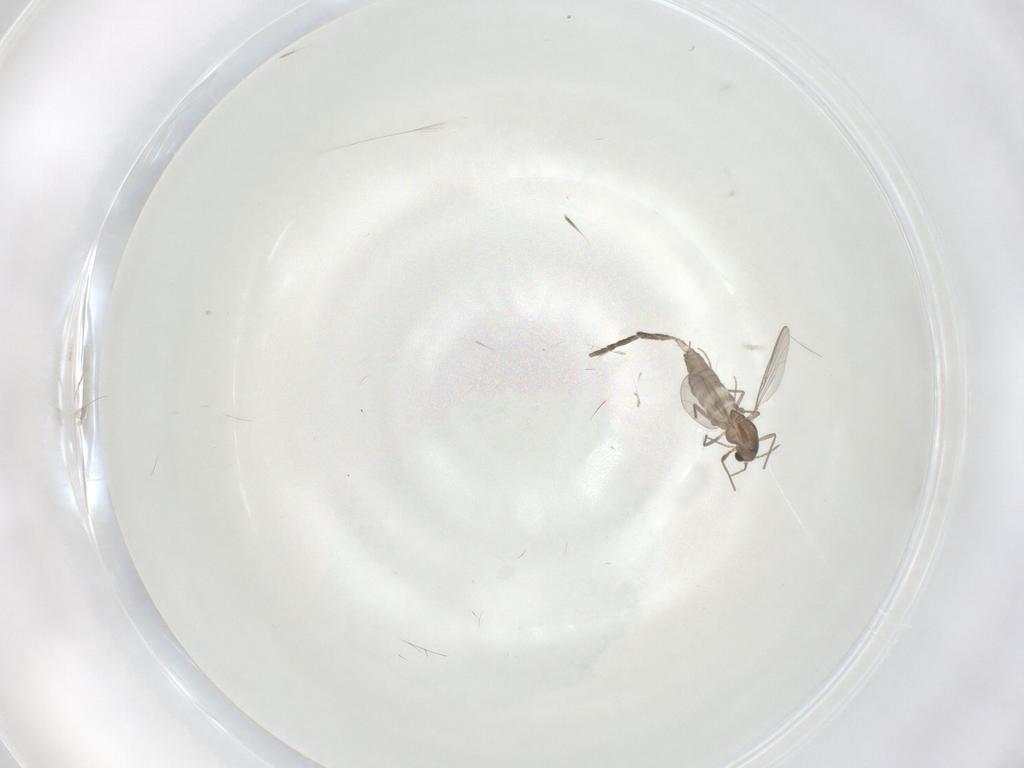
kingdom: Animalia
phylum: Arthropoda
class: Insecta
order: Diptera
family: Chironomidae
